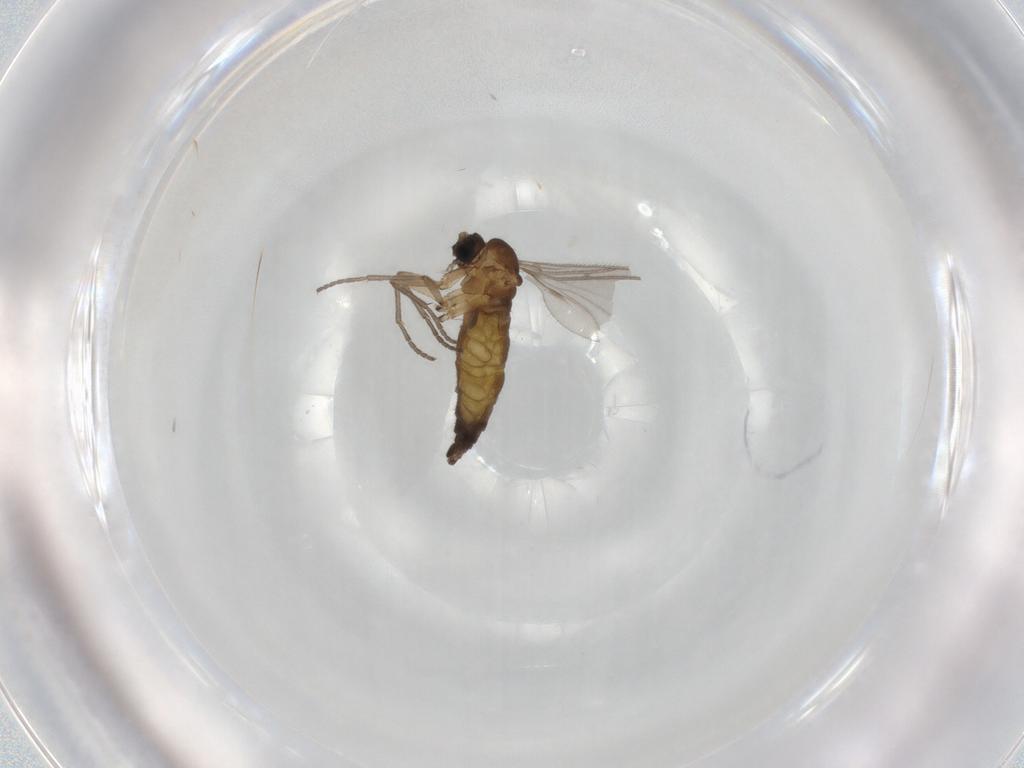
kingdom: Animalia
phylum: Arthropoda
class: Insecta
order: Diptera
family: Sciaridae
